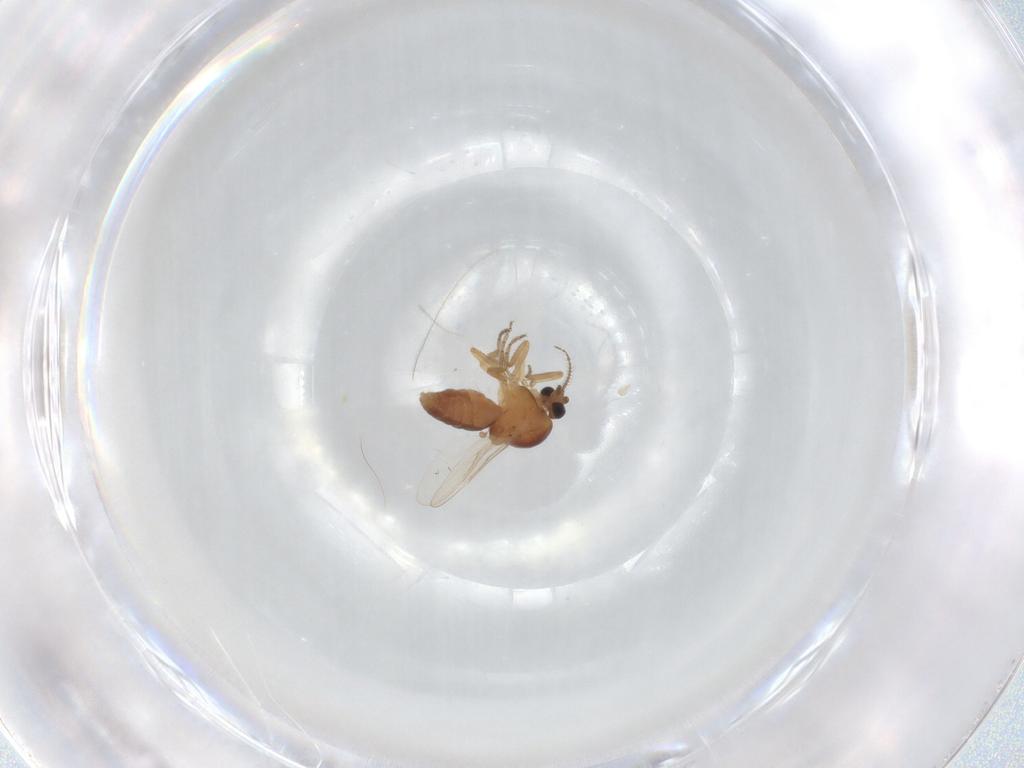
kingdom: Animalia
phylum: Arthropoda
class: Insecta
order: Diptera
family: Ceratopogonidae
